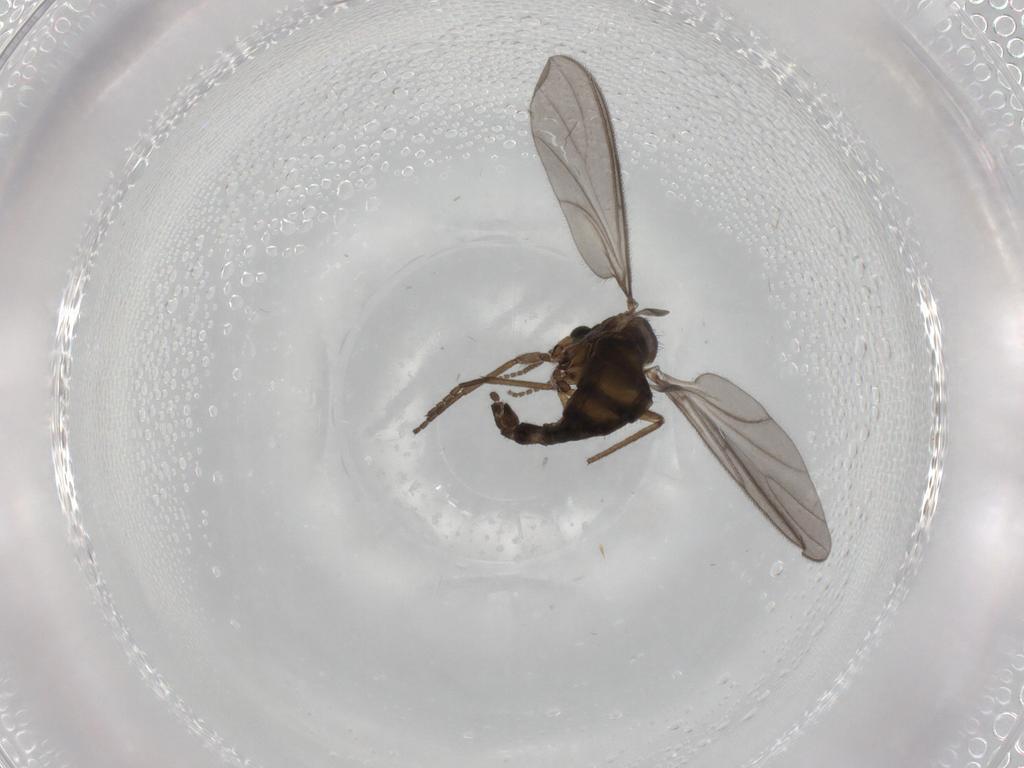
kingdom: Animalia
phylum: Arthropoda
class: Insecta
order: Diptera
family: Sciaridae
